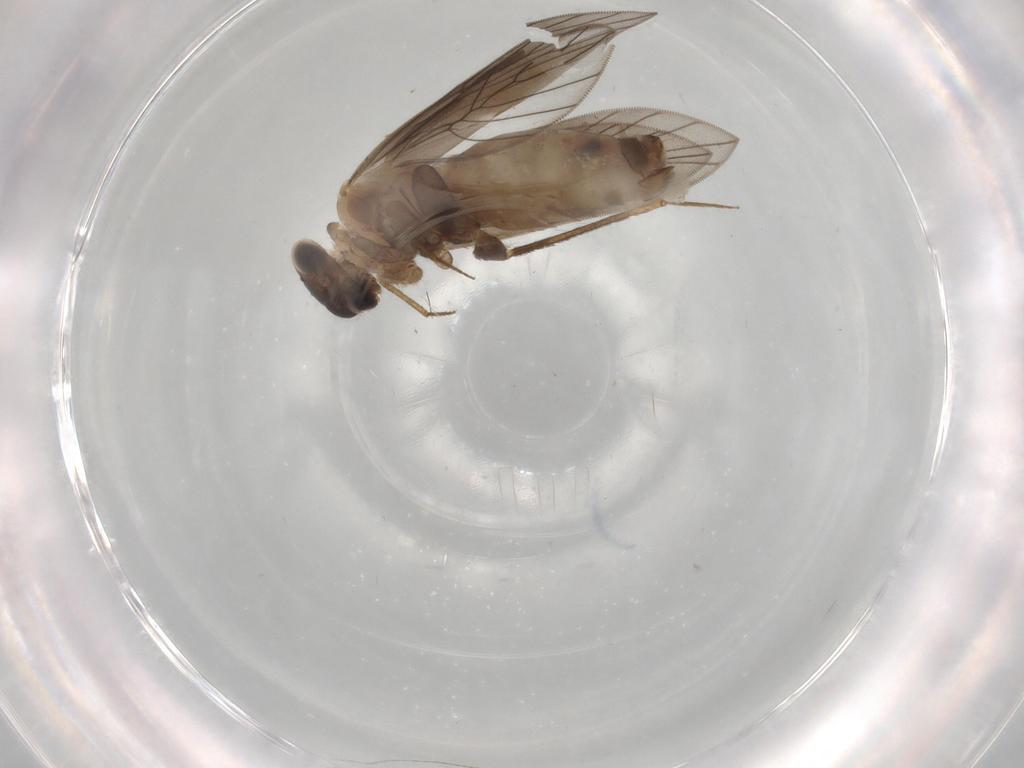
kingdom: Animalia
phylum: Arthropoda
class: Insecta
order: Psocodea
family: Lepidopsocidae
